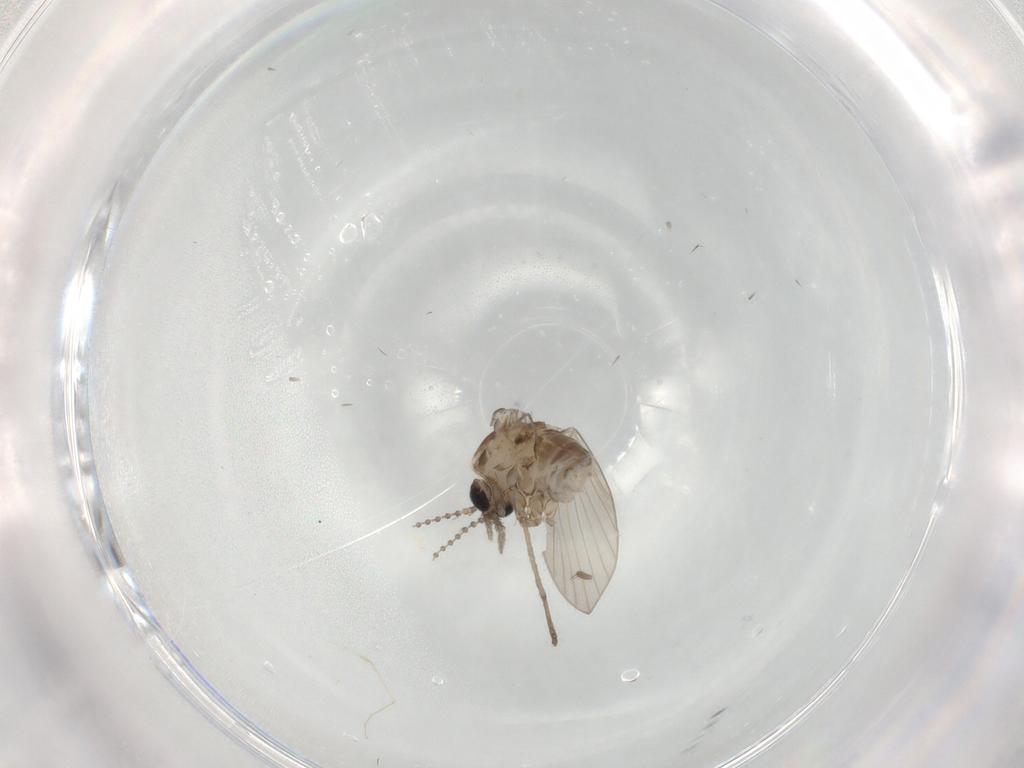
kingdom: Animalia
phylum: Arthropoda
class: Insecta
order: Diptera
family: Psychodidae
